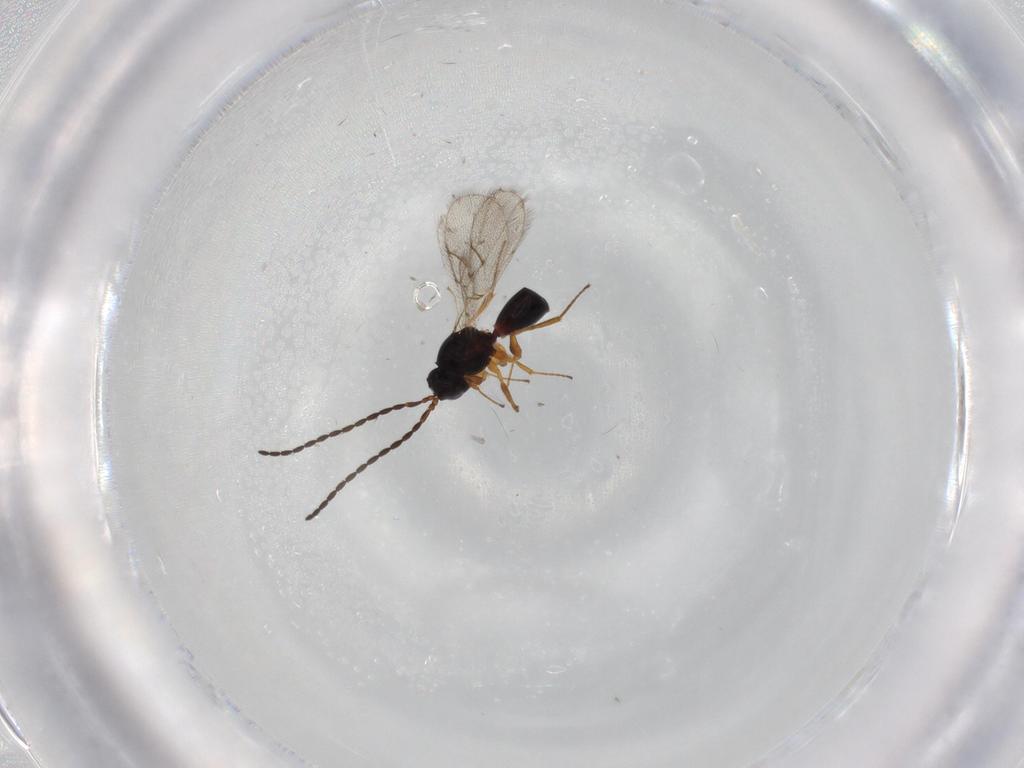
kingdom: Animalia
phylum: Arthropoda
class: Insecta
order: Hymenoptera
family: Figitidae
